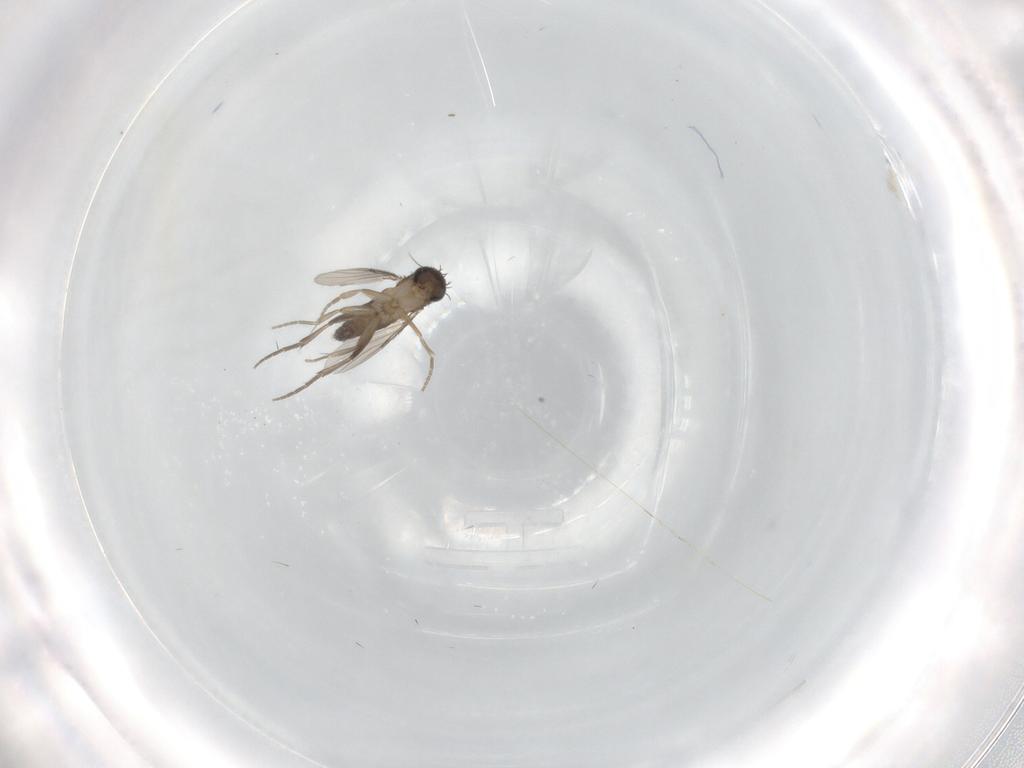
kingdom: Animalia
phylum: Arthropoda
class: Insecta
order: Diptera
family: Phoridae
